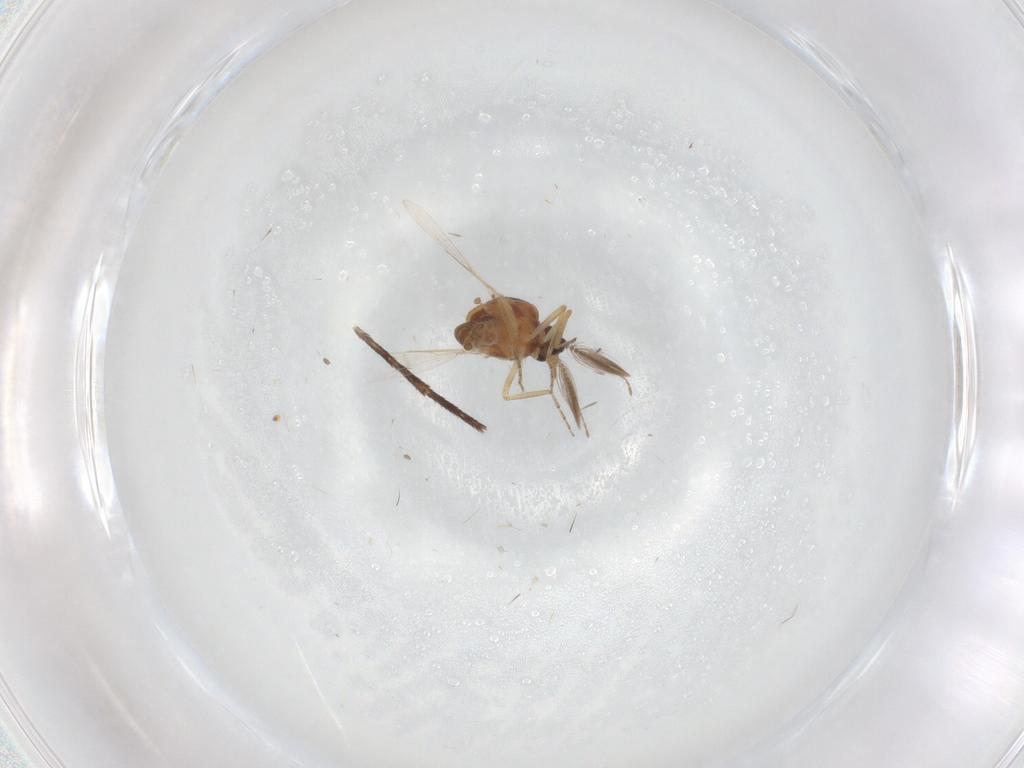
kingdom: Animalia
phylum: Arthropoda
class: Insecta
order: Diptera
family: Ceratopogonidae
